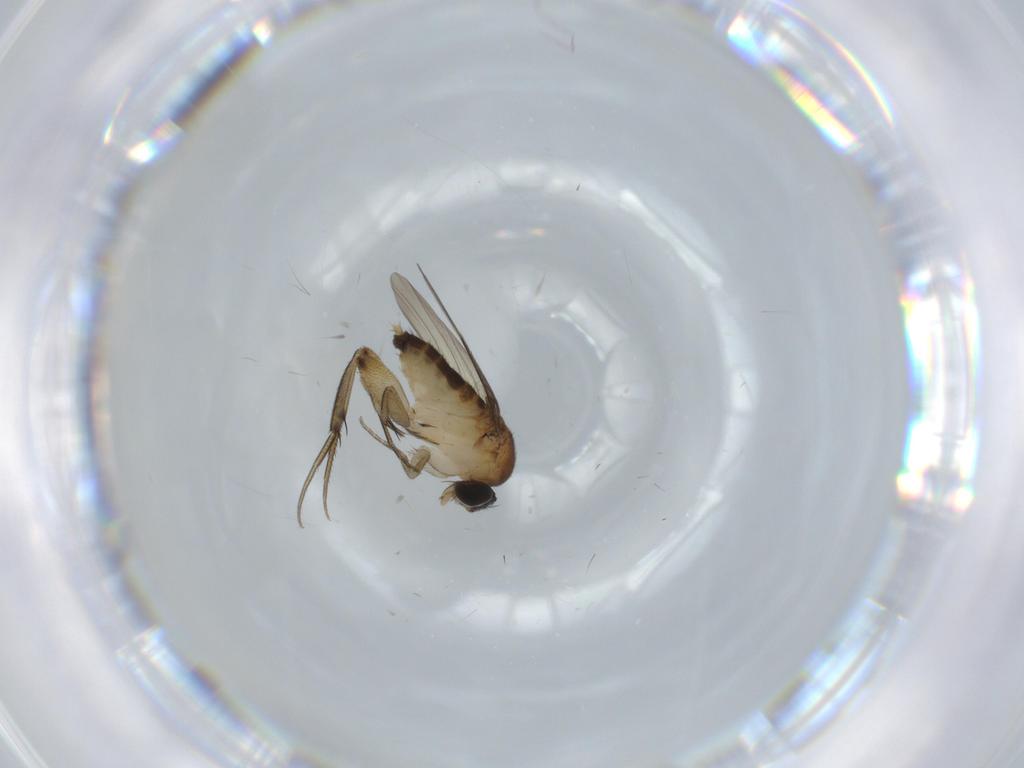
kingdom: Animalia
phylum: Arthropoda
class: Insecta
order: Diptera
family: Phoridae
